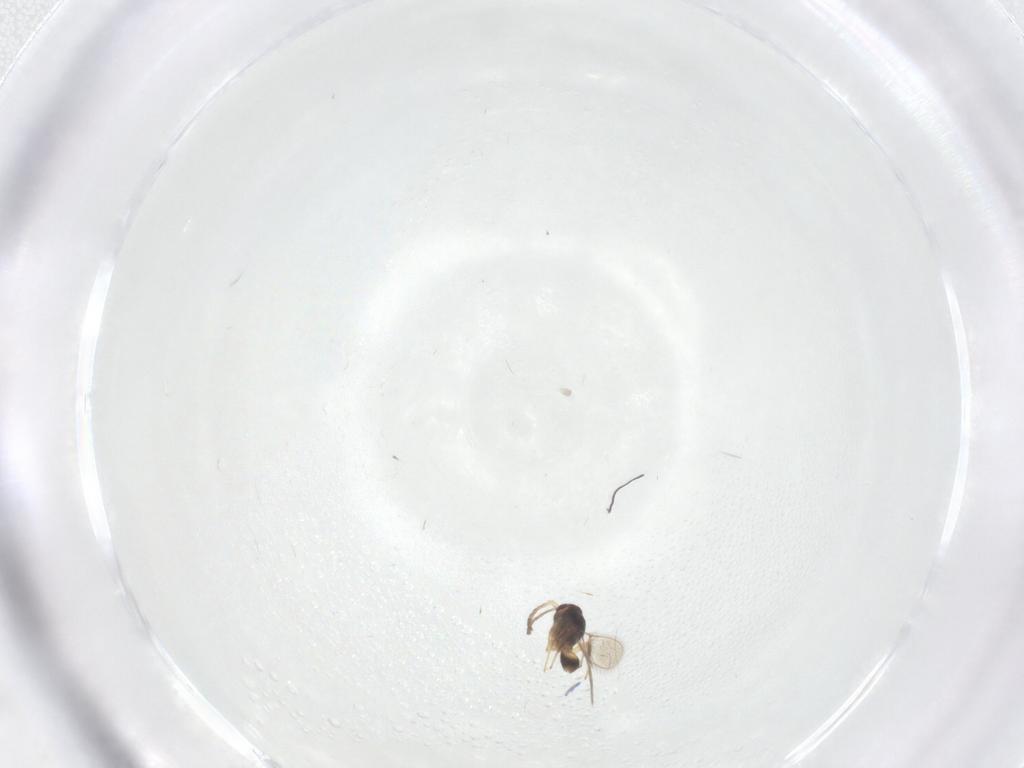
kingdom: Animalia
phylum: Arthropoda
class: Insecta
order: Hymenoptera
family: Mymaridae
